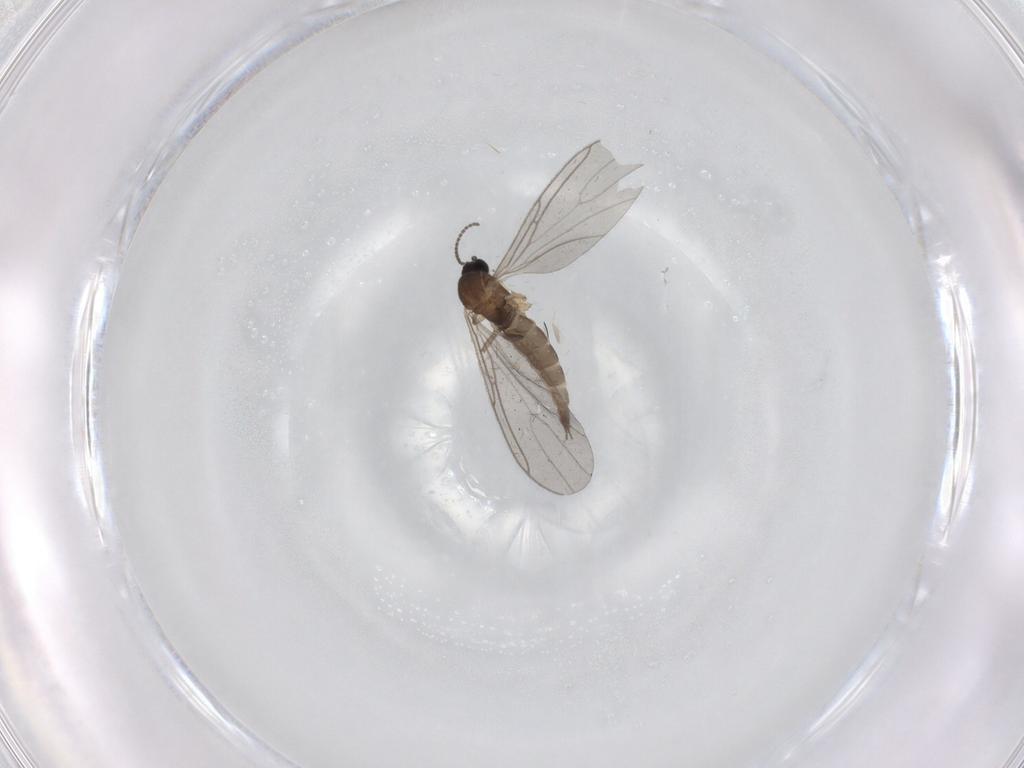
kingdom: Animalia
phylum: Arthropoda
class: Insecta
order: Diptera
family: Sciaridae
